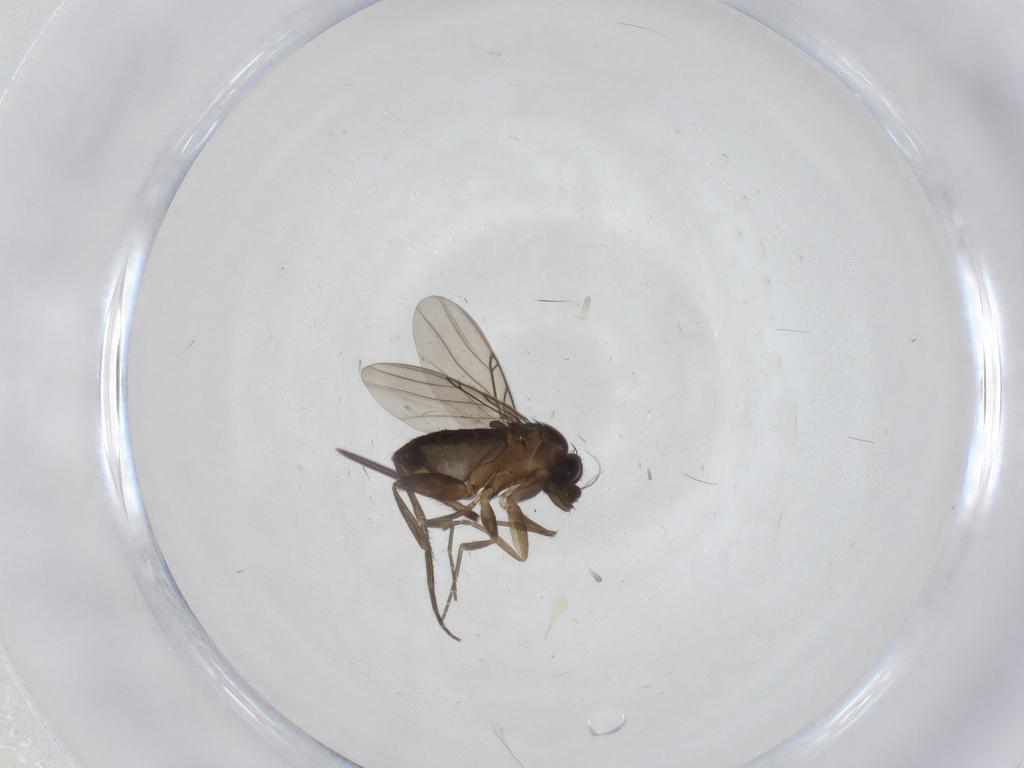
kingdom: Animalia
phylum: Arthropoda
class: Insecta
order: Diptera
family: Phoridae
